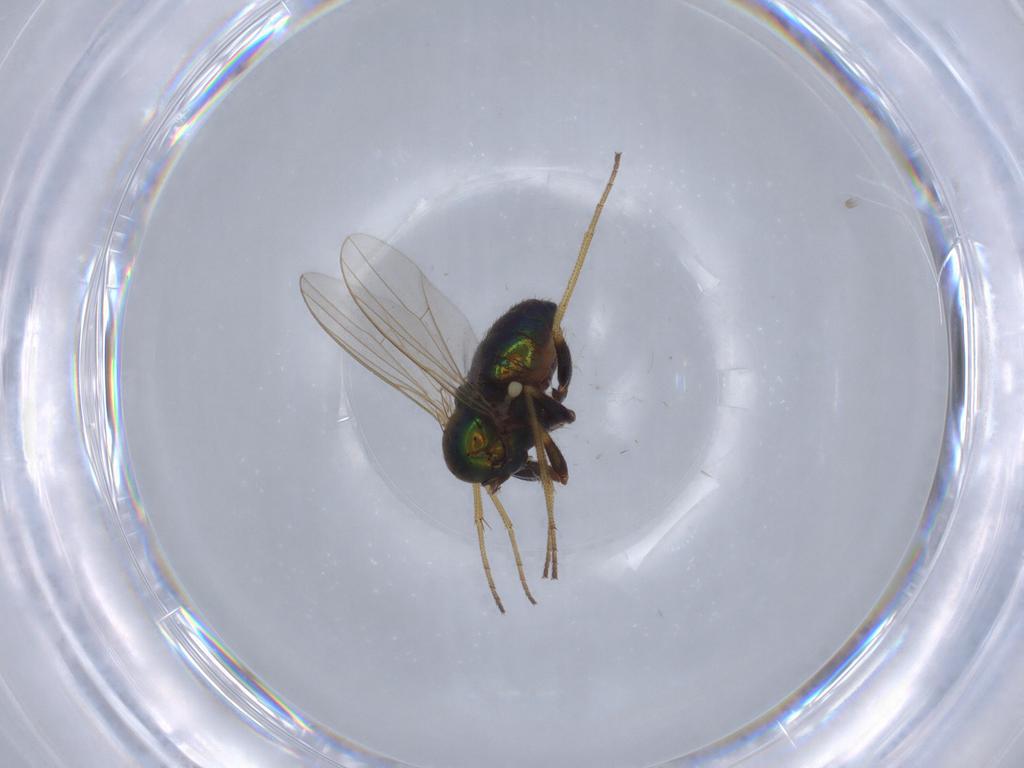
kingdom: Animalia
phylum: Arthropoda
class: Insecta
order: Diptera
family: Dolichopodidae
